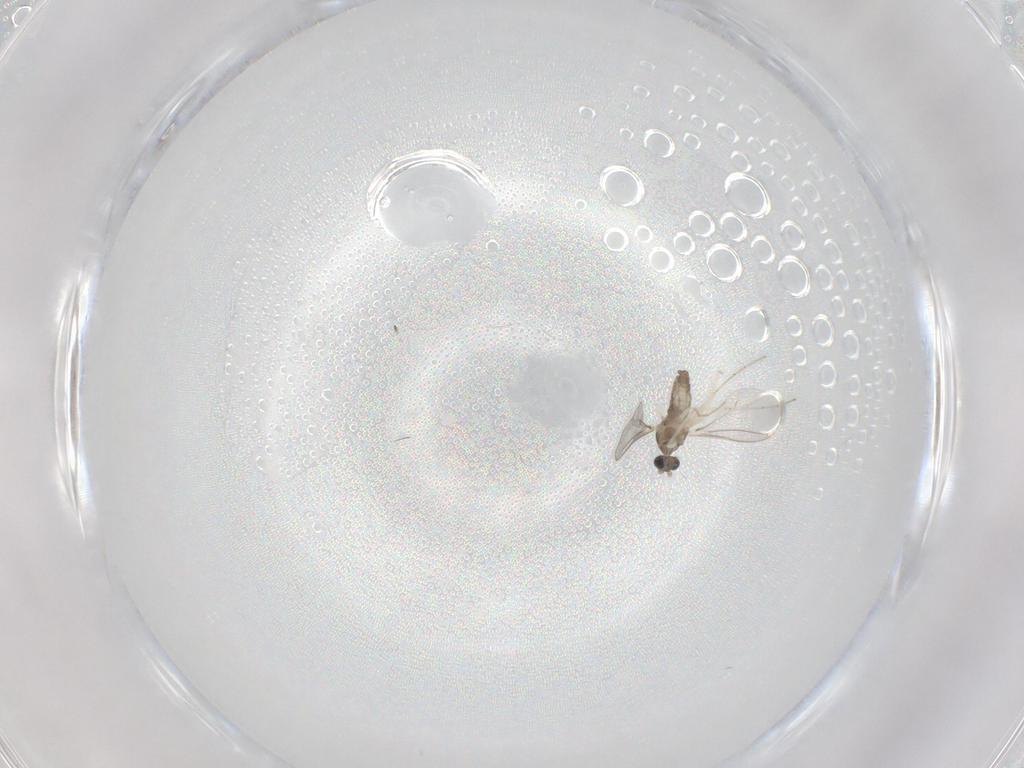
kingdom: Animalia
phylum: Arthropoda
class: Insecta
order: Diptera
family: Cecidomyiidae
